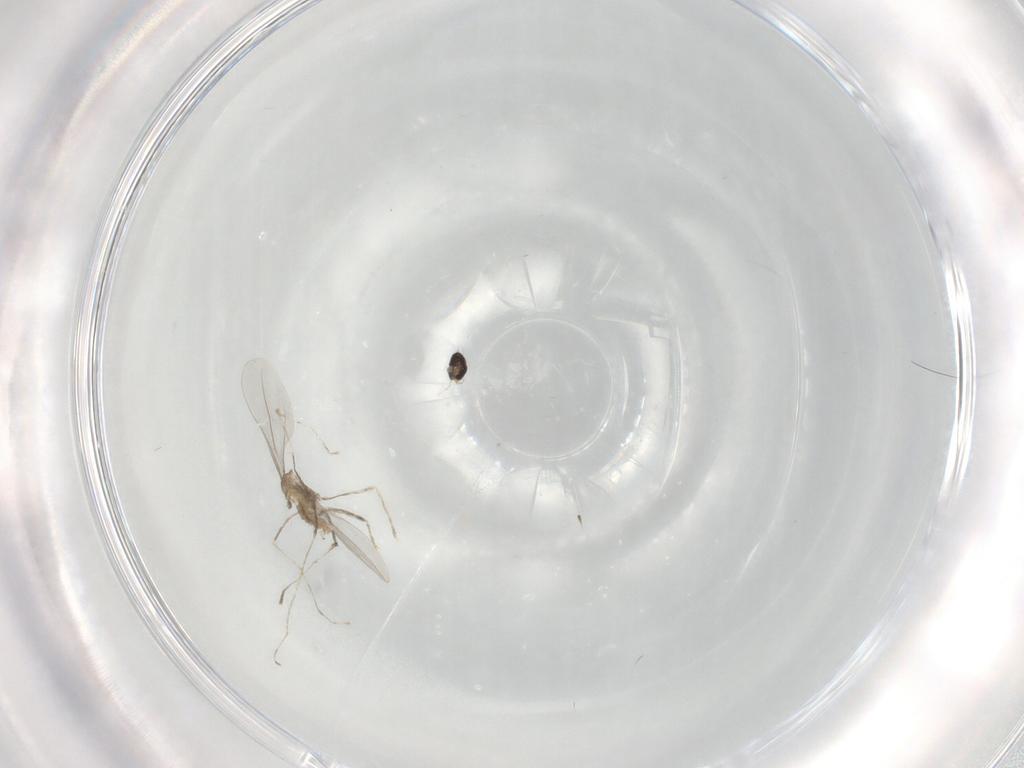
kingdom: Animalia
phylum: Arthropoda
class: Insecta
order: Diptera
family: Cecidomyiidae
